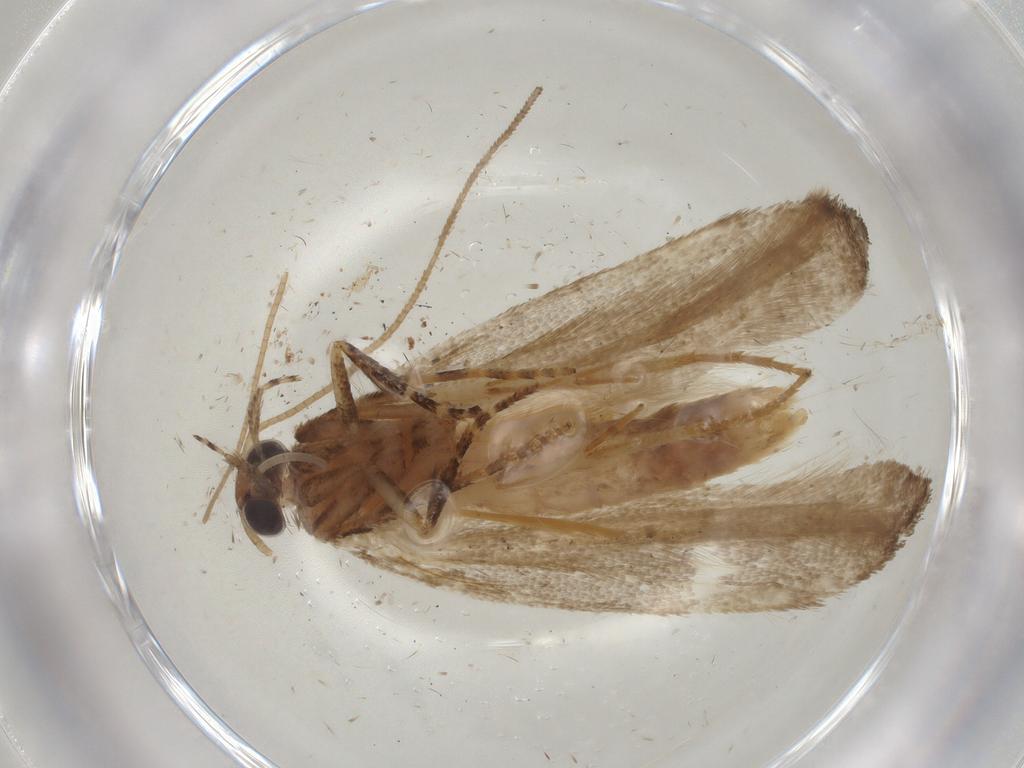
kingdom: Animalia
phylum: Arthropoda
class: Insecta
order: Lepidoptera
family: Gelechiidae
